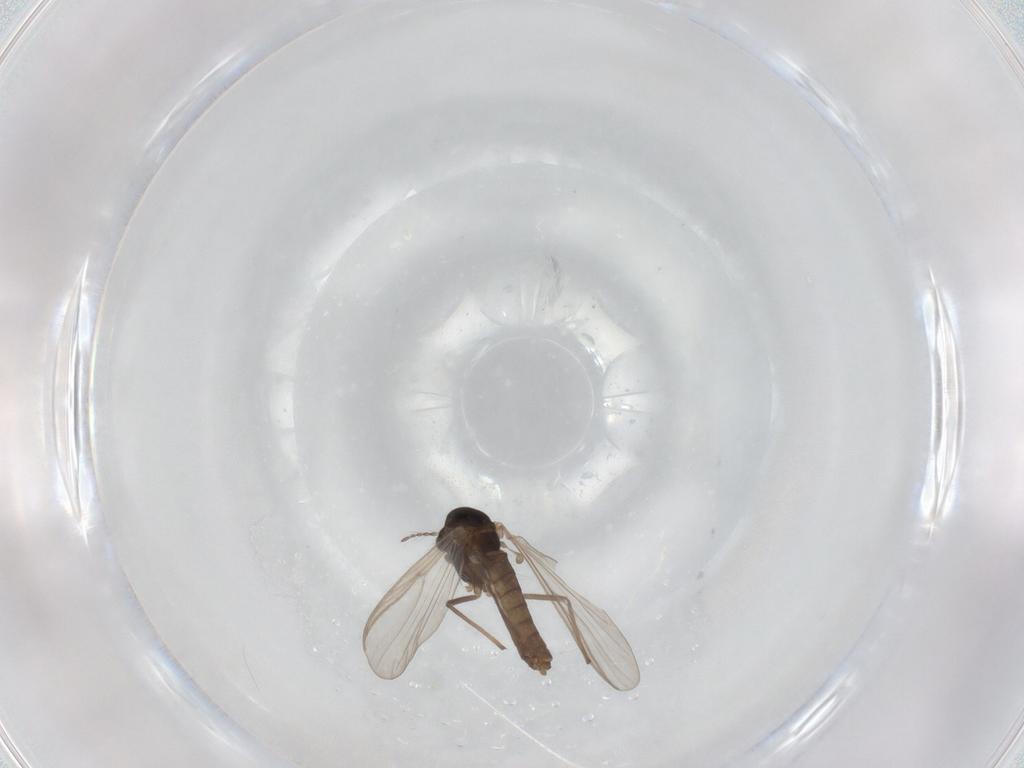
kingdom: Animalia
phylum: Arthropoda
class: Insecta
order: Diptera
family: Chironomidae
